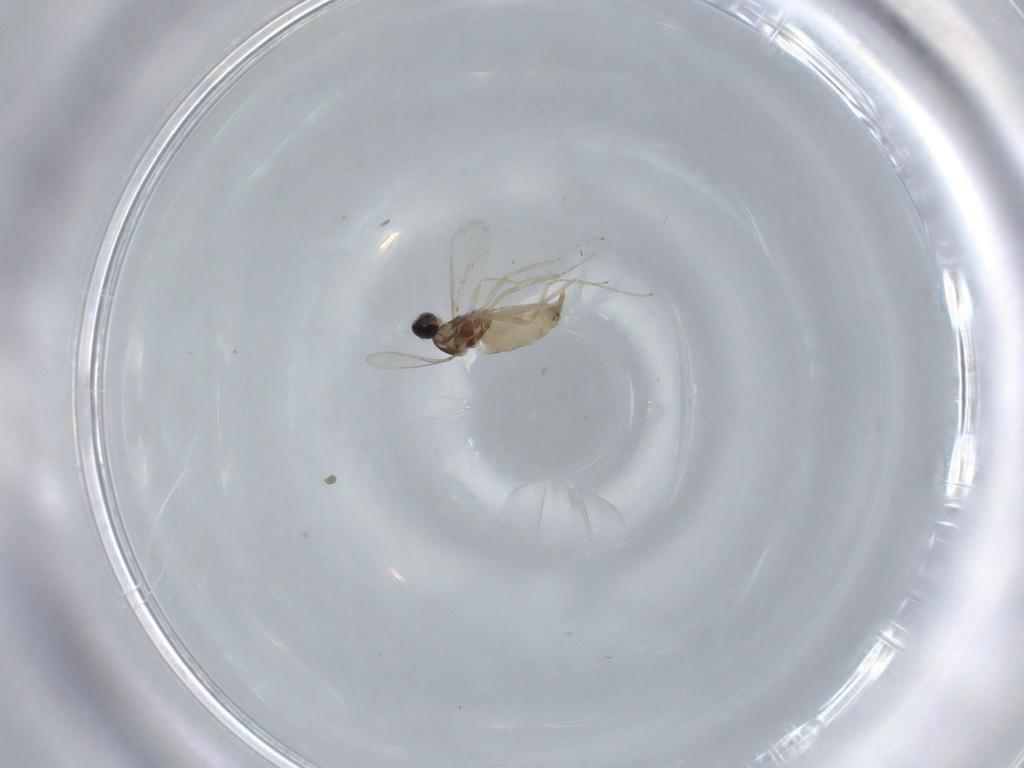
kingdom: Animalia
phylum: Arthropoda
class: Insecta
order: Diptera
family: Cecidomyiidae
